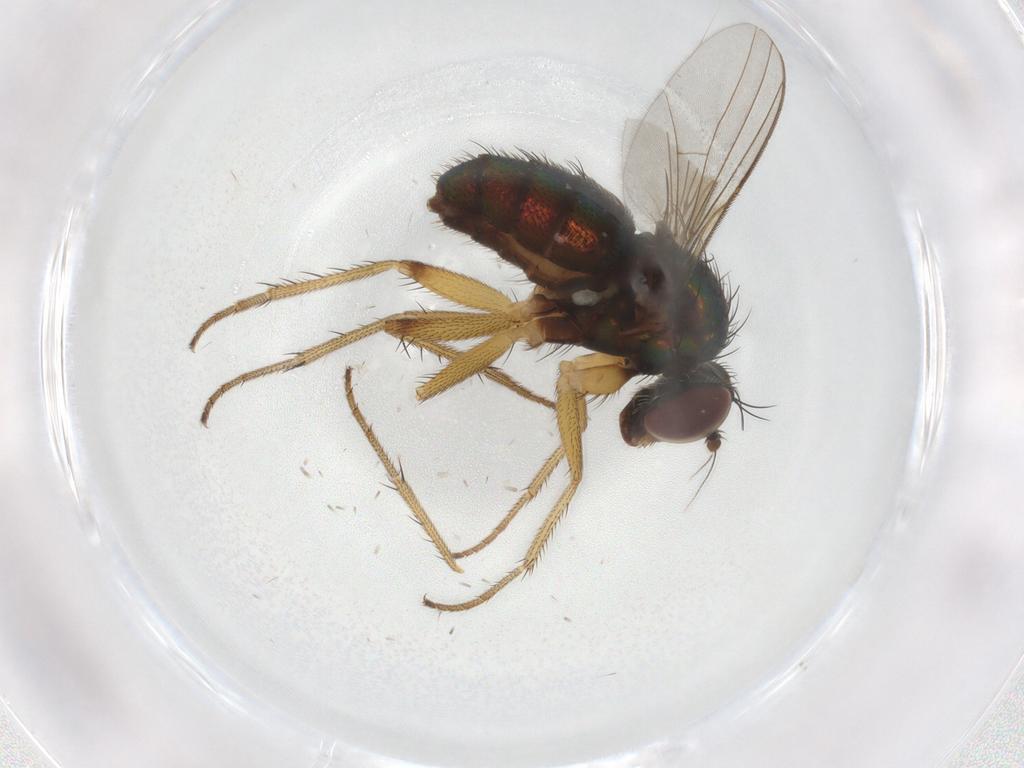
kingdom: Animalia
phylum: Arthropoda
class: Insecta
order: Diptera
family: Dolichopodidae
